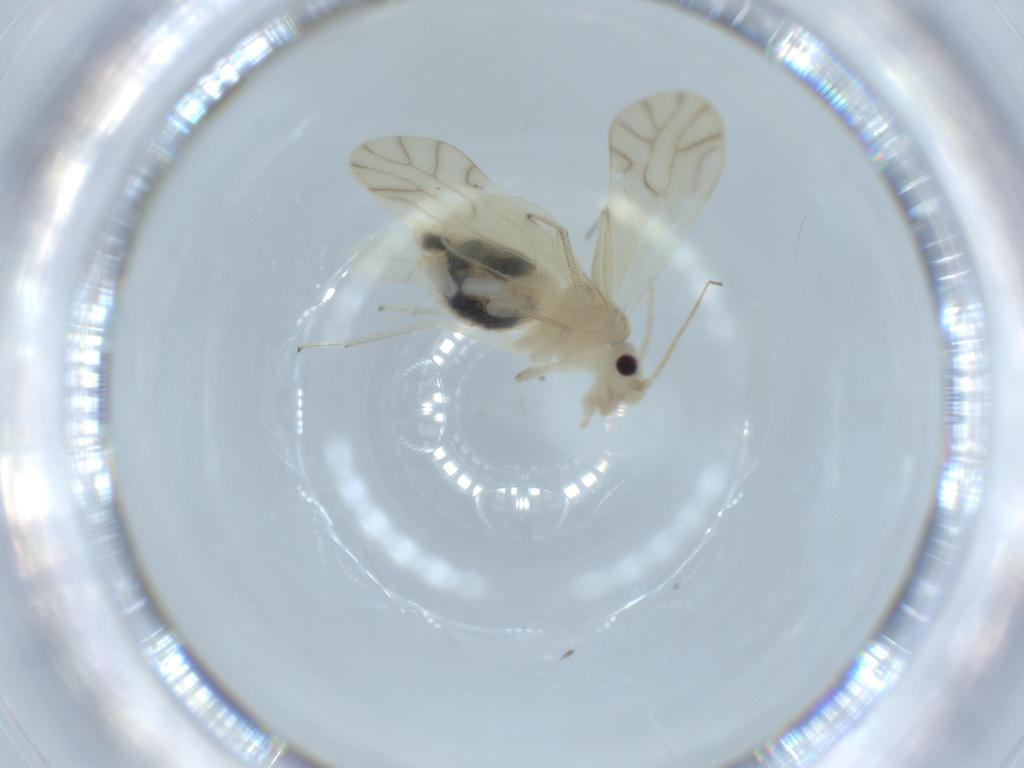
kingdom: Animalia
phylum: Arthropoda
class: Insecta
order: Psocodea
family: Caeciliusidae
